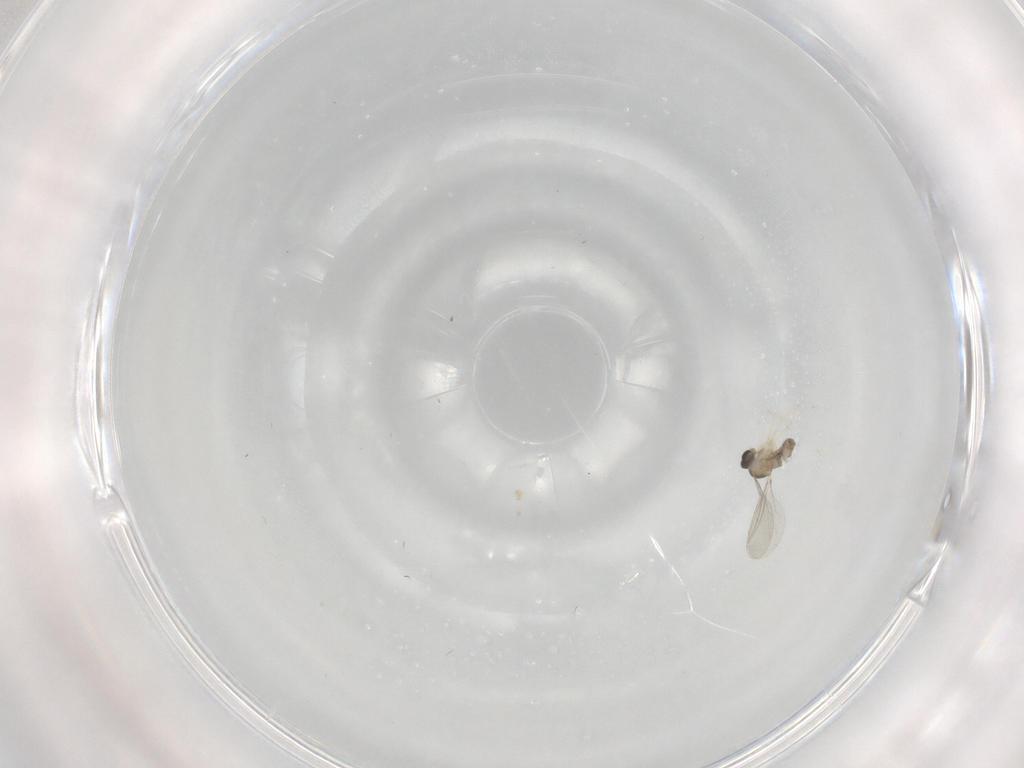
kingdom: Animalia
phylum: Arthropoda
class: Insecta
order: Diptera
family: Cecidomyiidae
